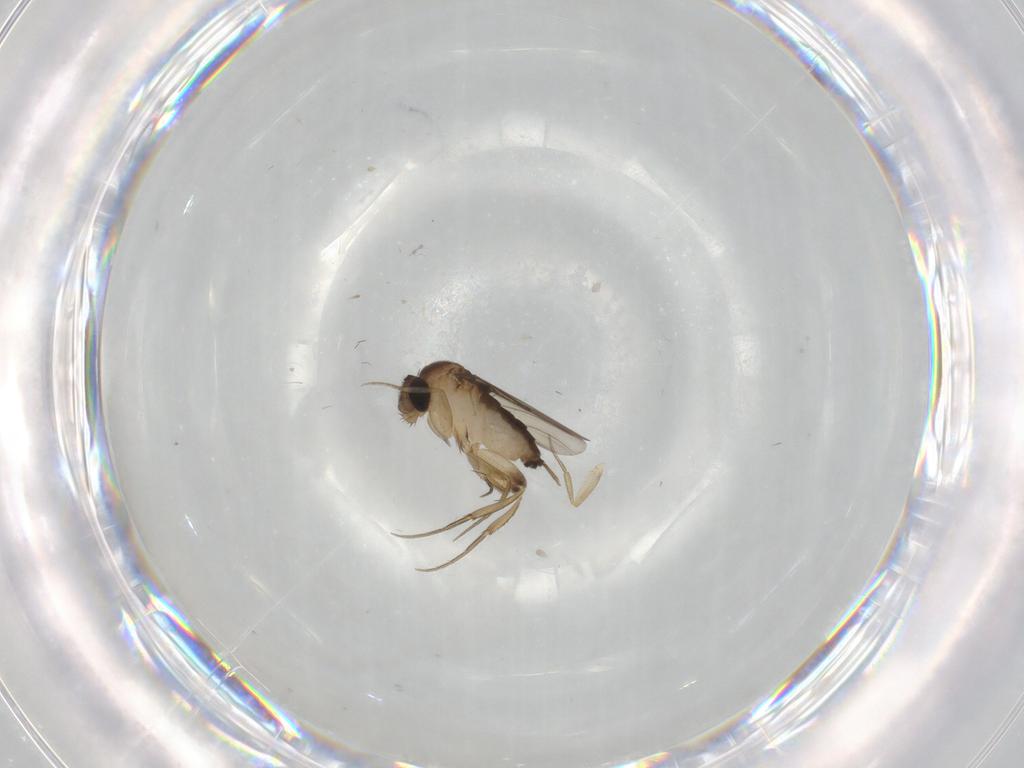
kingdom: Animalia
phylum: Arthropoda
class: Insecta
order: Diptera
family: Phoridae
